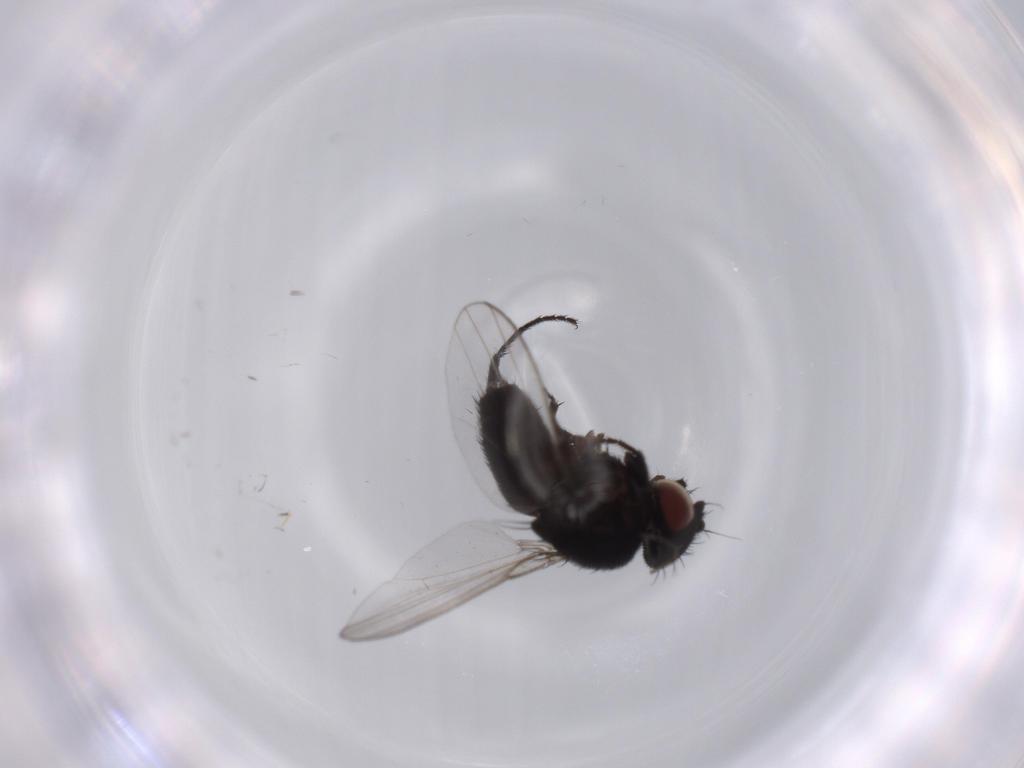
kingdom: Animalia
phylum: Arthropoda
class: Insecta
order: Diptera
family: Milichiidae
